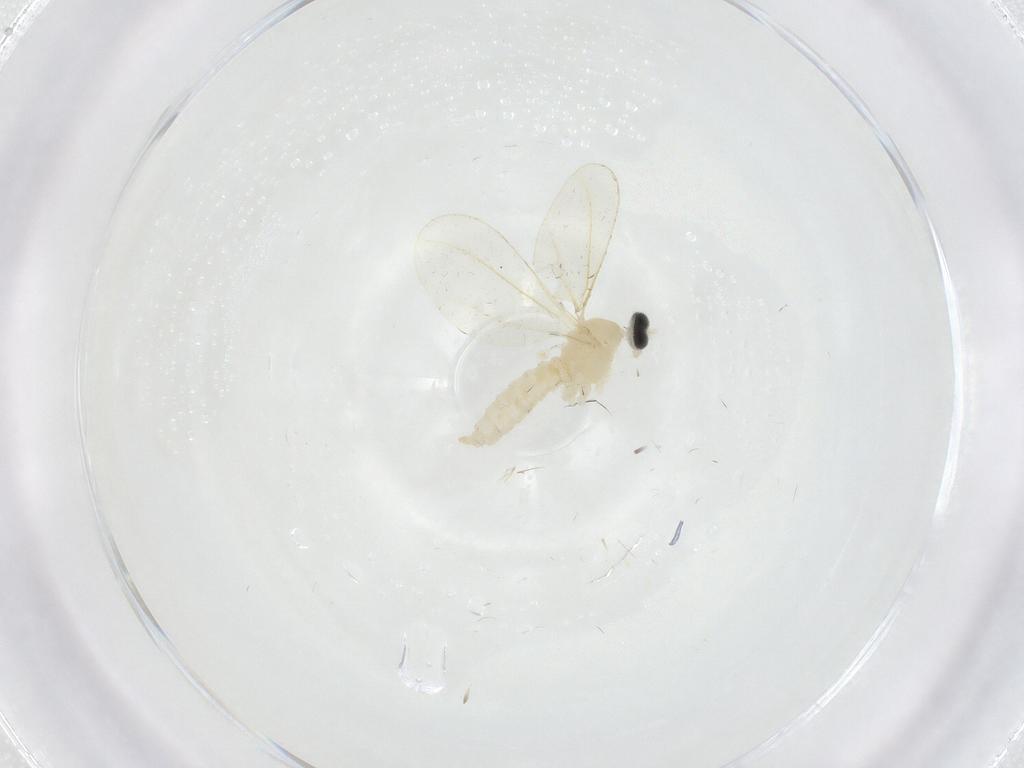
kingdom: Animalia
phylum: Arthropoda
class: Insecta
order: Diptera
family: Cecidomyiidae
